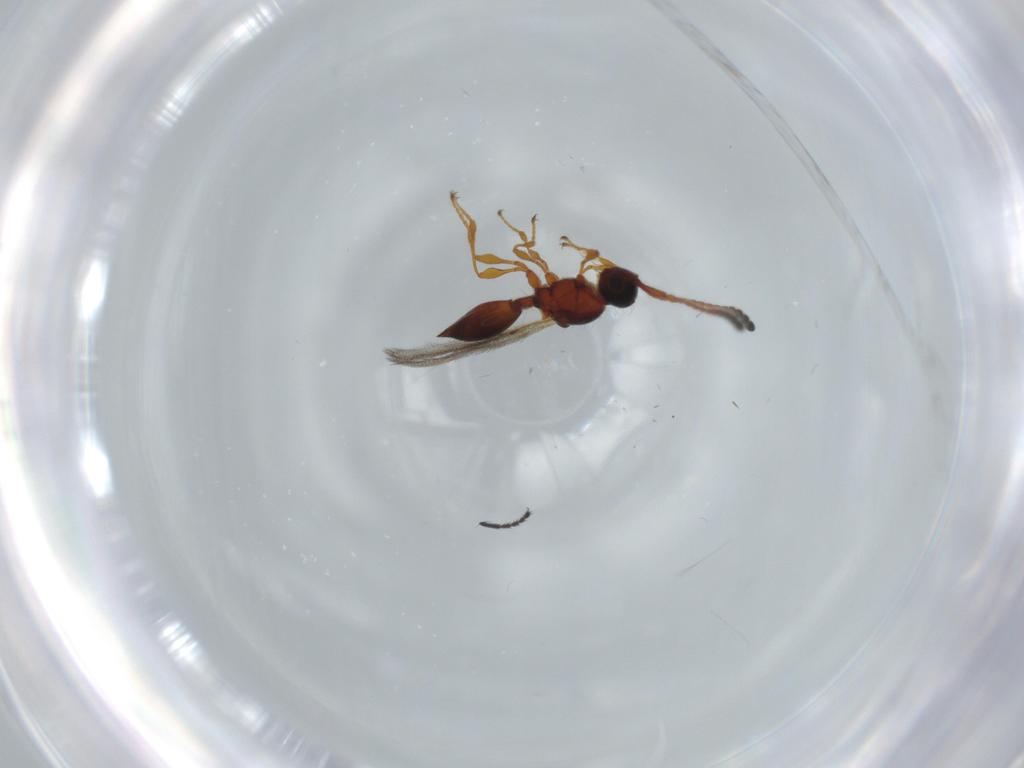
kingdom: Animalia
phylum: Arthropoda
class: Insecta
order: Hymenoptera
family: Diapriidae
